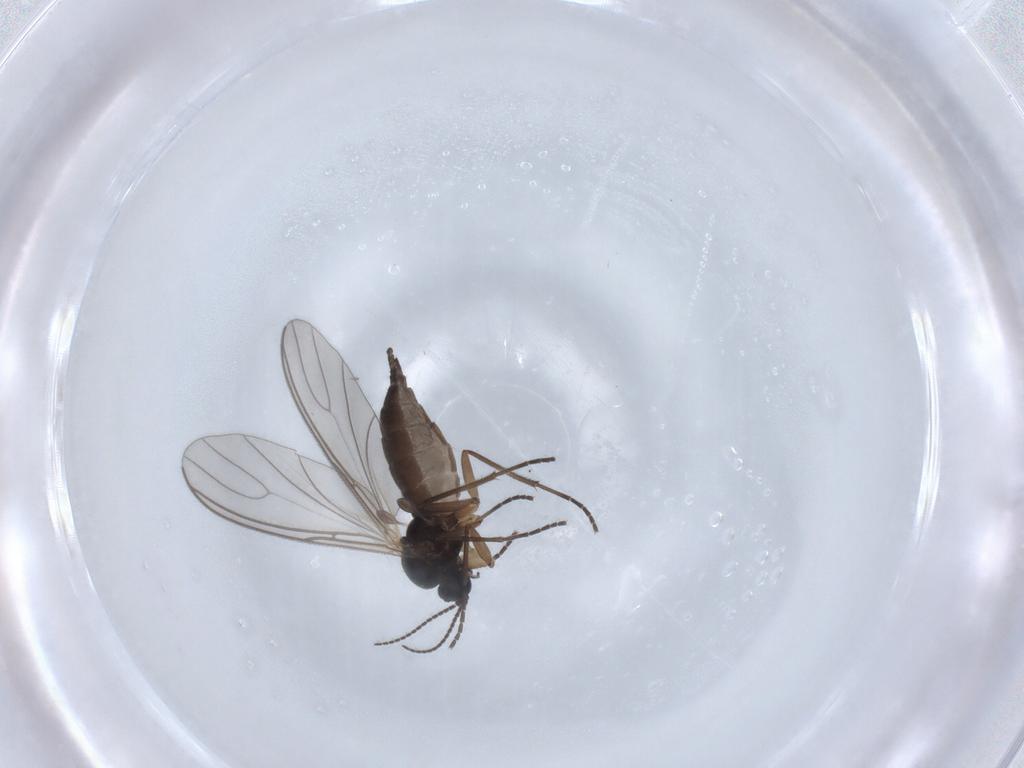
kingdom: Animalia
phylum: Arthropoda
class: Insecta
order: Diptera
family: Sciaridae
